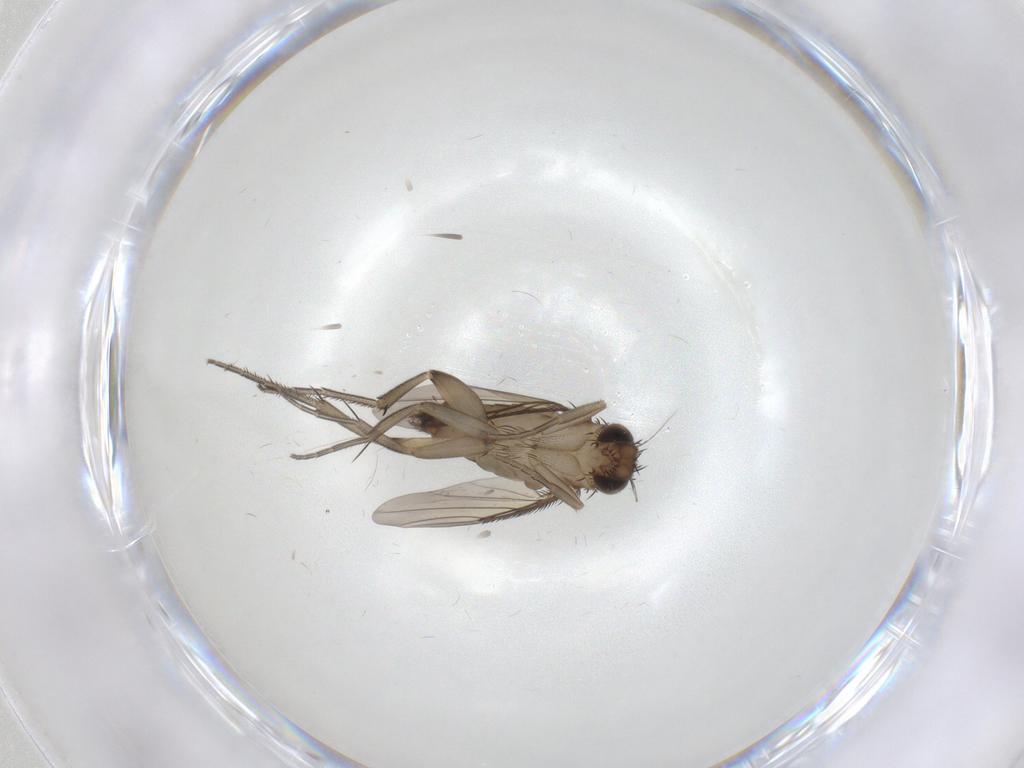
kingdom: Animalia
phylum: Arthropoda
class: Insecta
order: Diptera
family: Phoridae
